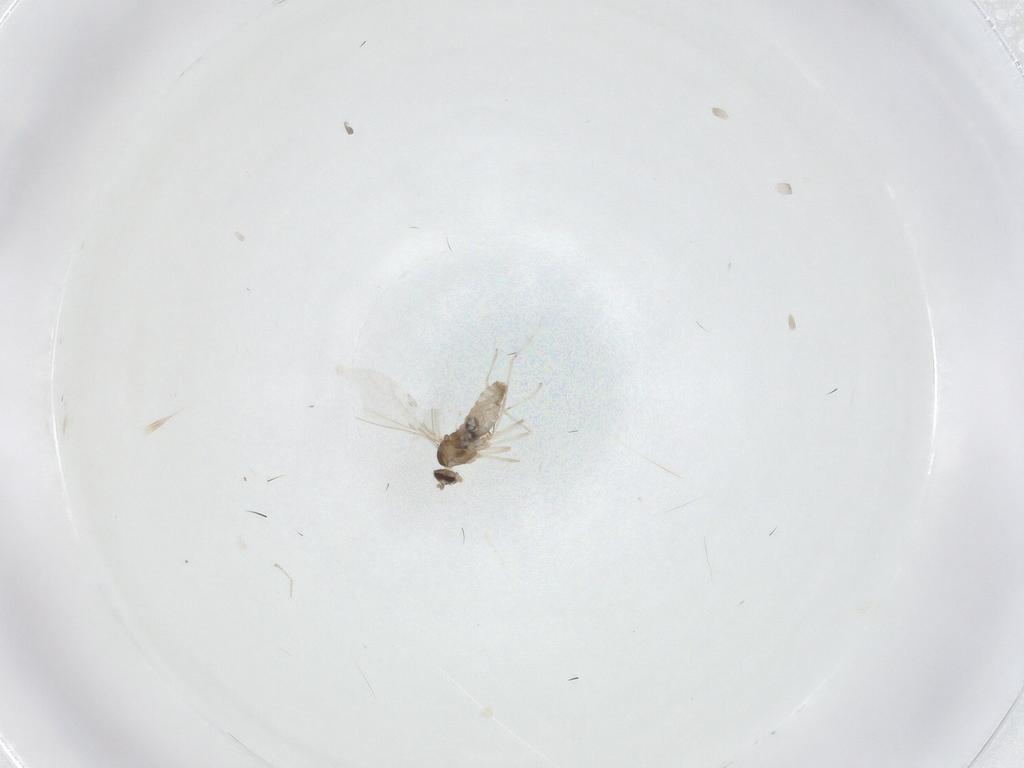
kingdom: Animalia
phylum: Arthropoda
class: Insecta
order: Diptera
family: Cecidomyiidae
